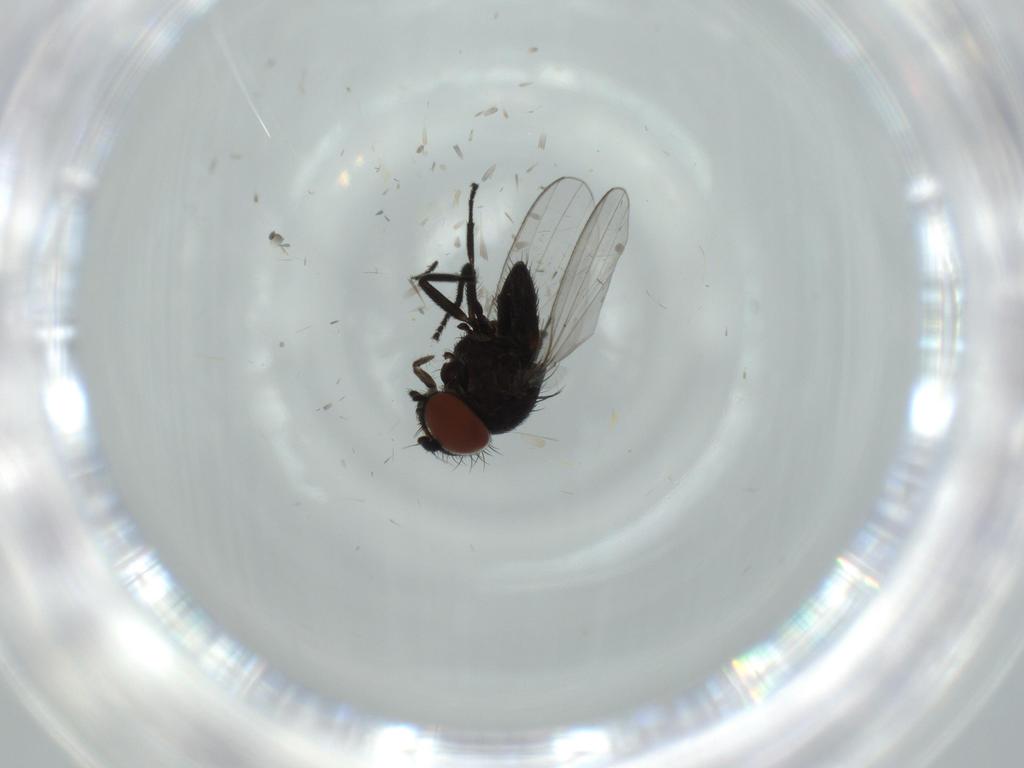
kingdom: Animalia
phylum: Arthropoda
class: Insecta
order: Diptera
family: Milichiidae
